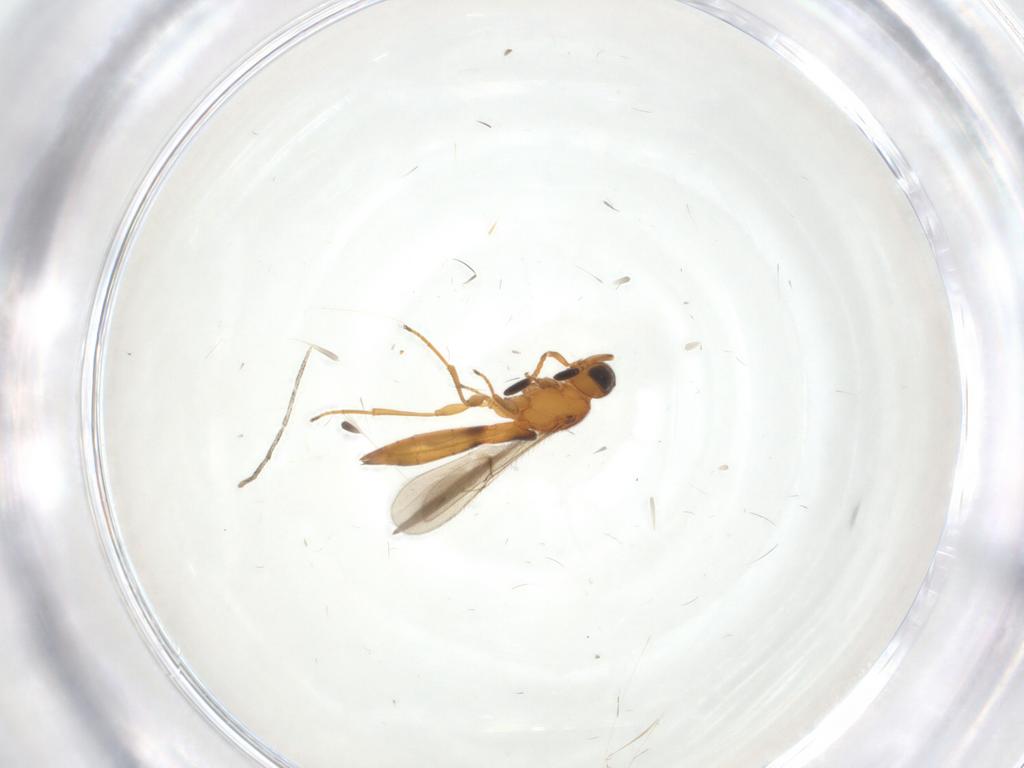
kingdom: Animalia
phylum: Arthropoda
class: Insecta
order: Hymenoptera
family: Scelionidae
